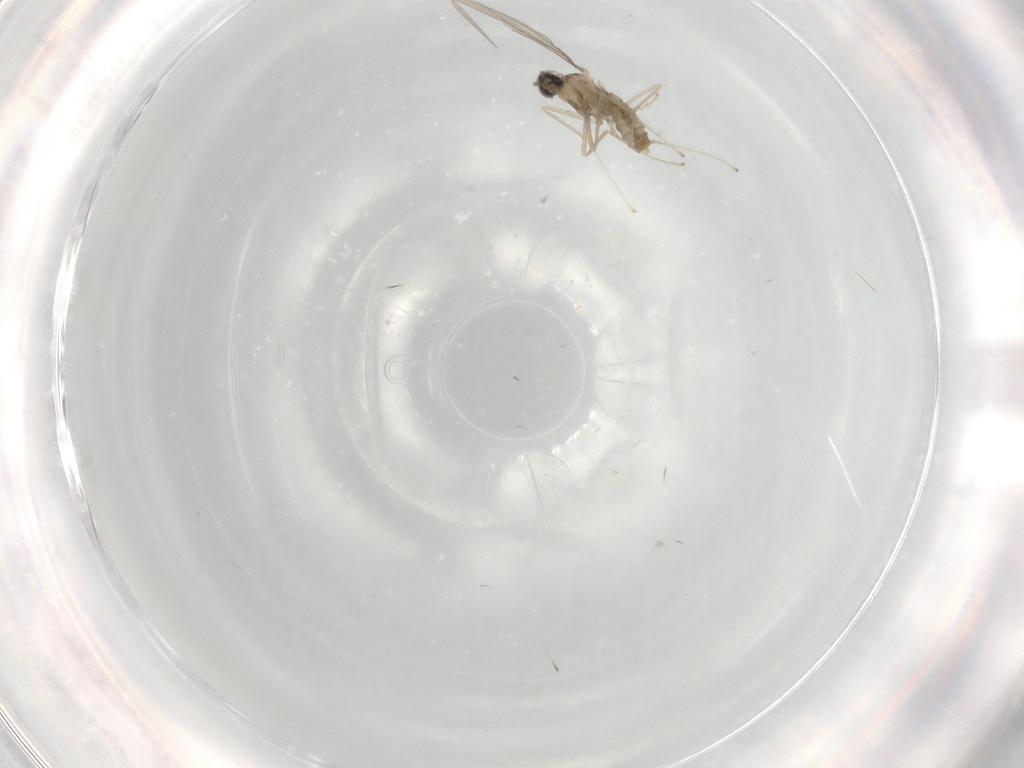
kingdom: Animalia
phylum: Arthropoda
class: Insecta
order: Diptera
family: Cecidomyiidae
